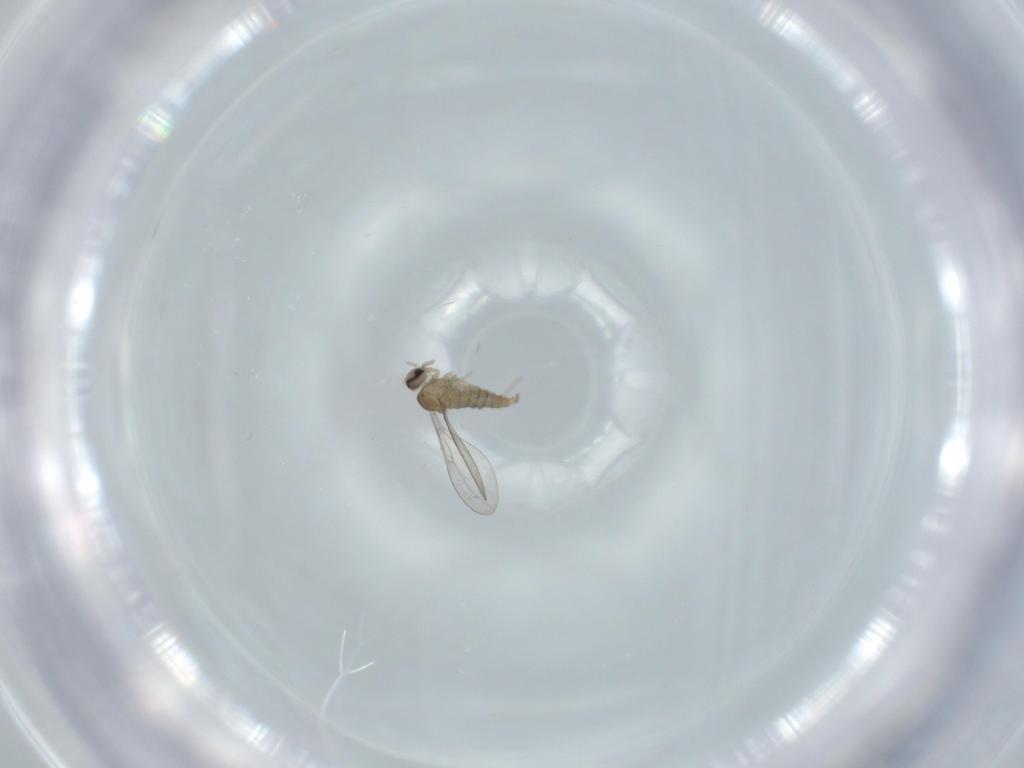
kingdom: Animalia
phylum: Arthropoda
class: Insecta
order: Diptera
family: Cecidomyiidae
